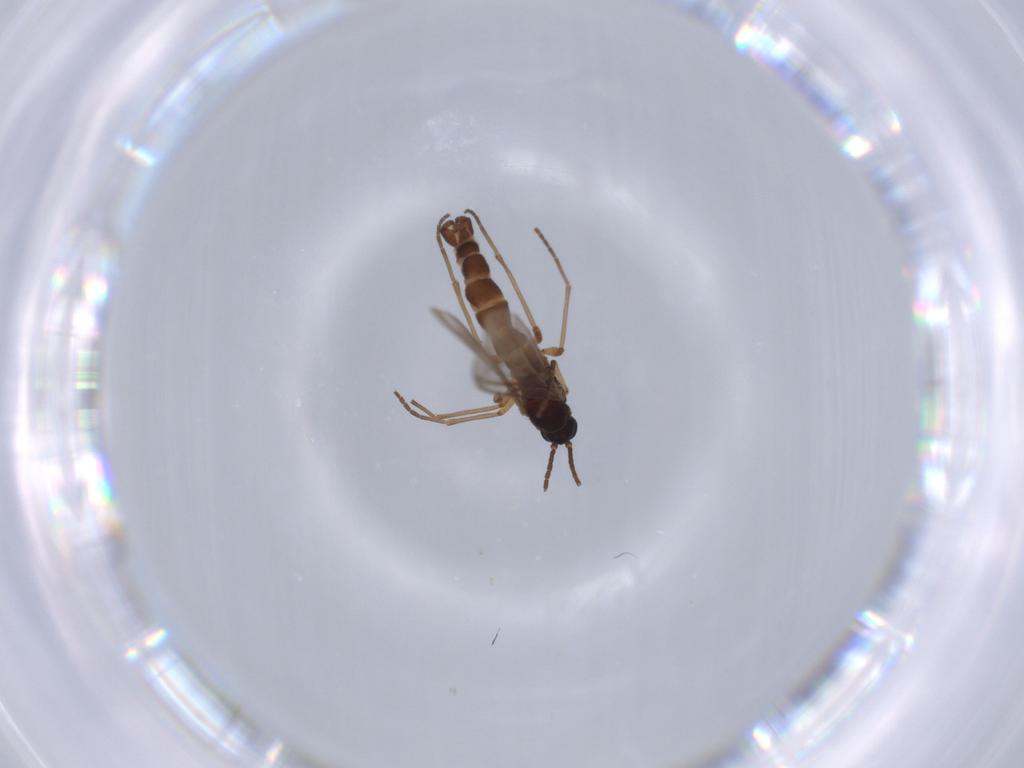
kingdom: Animalia
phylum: Arthropoda
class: Insecta
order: Diptera
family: Sciaridae
